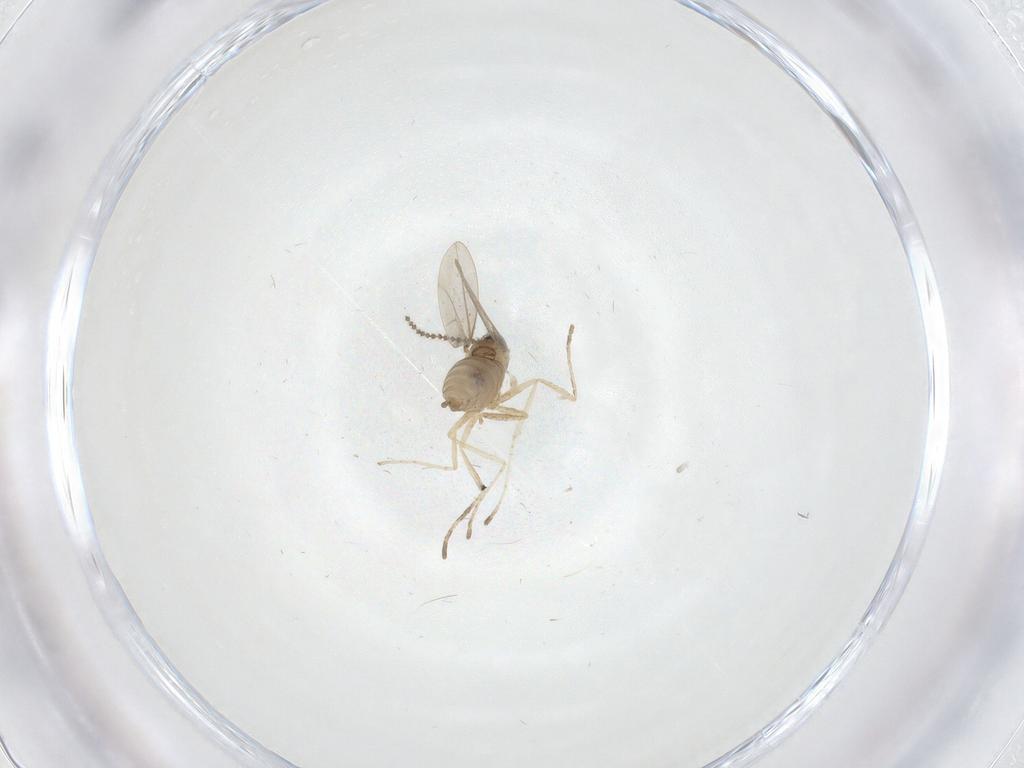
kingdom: Animalia
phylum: Arthropoda
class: Insecta
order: Diptera
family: Cecidomyiidae
